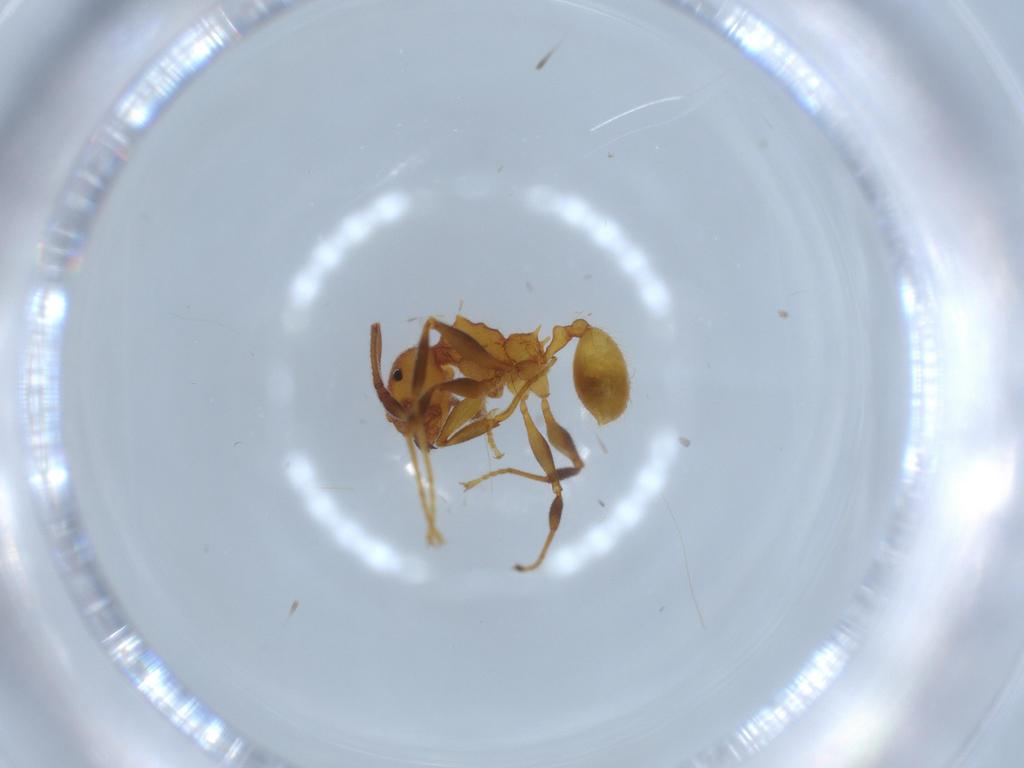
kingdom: Animalia
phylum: Arthropoda
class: Insecta
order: Hymenoptera
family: Formicidae
